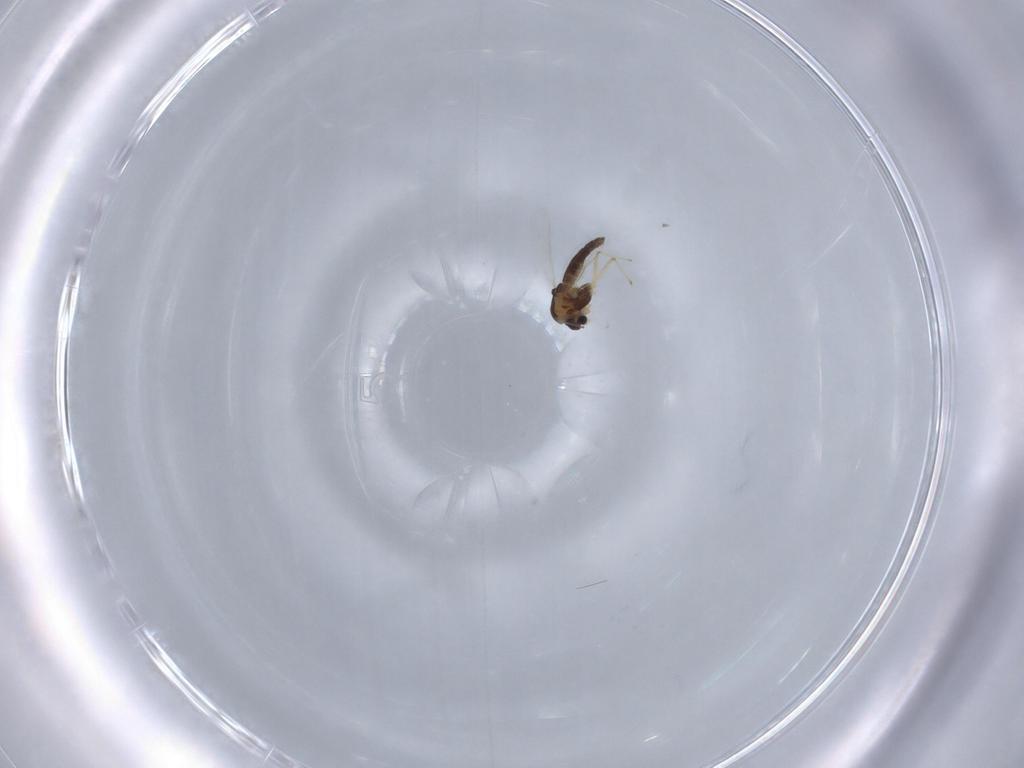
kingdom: Animalia
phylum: Arthropoda
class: Insecta
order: Diptera
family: Chironomidae
